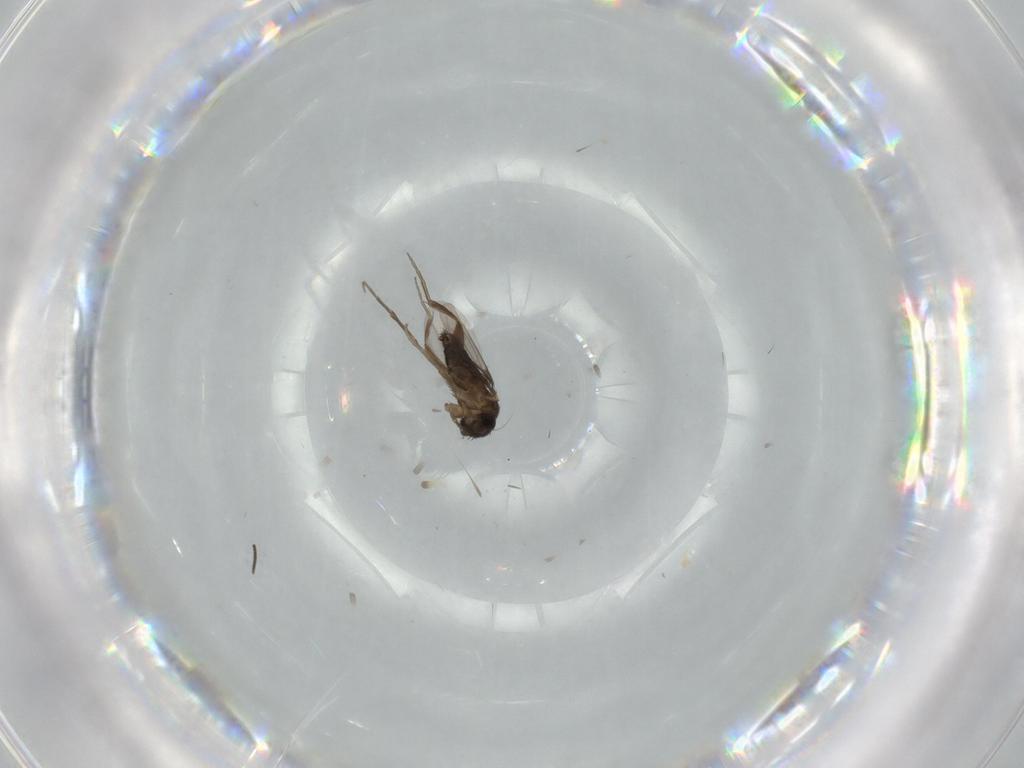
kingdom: Animalia
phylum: Arthropoda
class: Insecta
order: Diptera
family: Sciaridae
